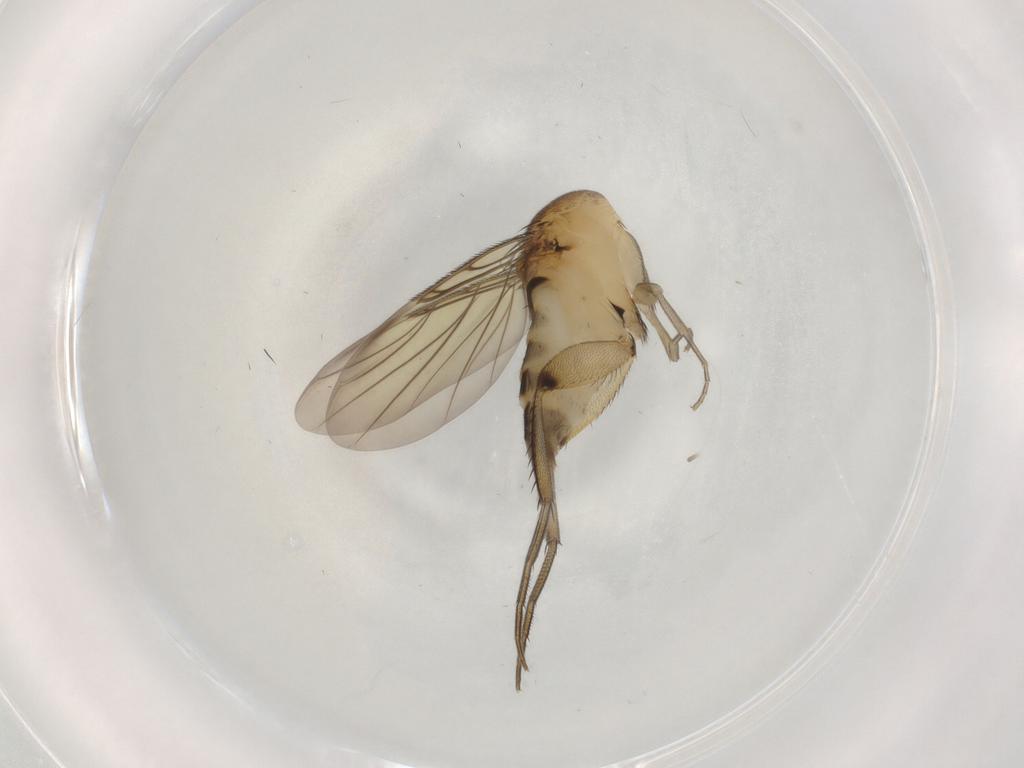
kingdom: Animalia
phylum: Arthropoda
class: Insecta
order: Diptera
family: Phoridae
